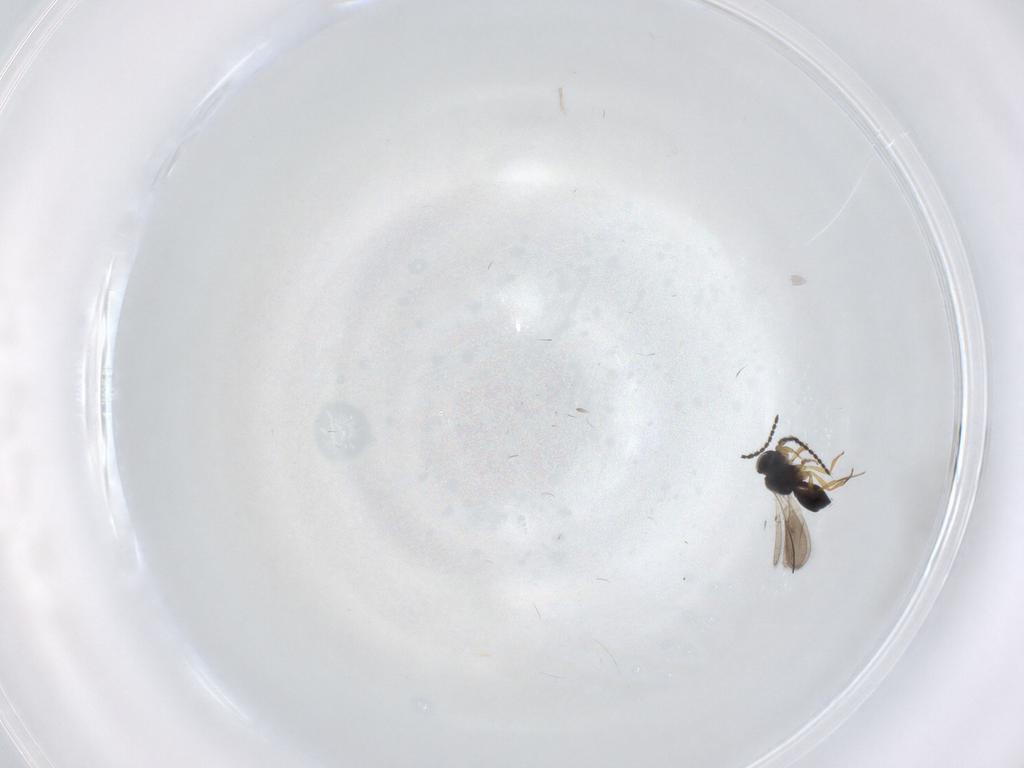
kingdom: Animalia
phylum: Arthropoda
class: Insecta
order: Hymenoptera
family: Scelionidae
